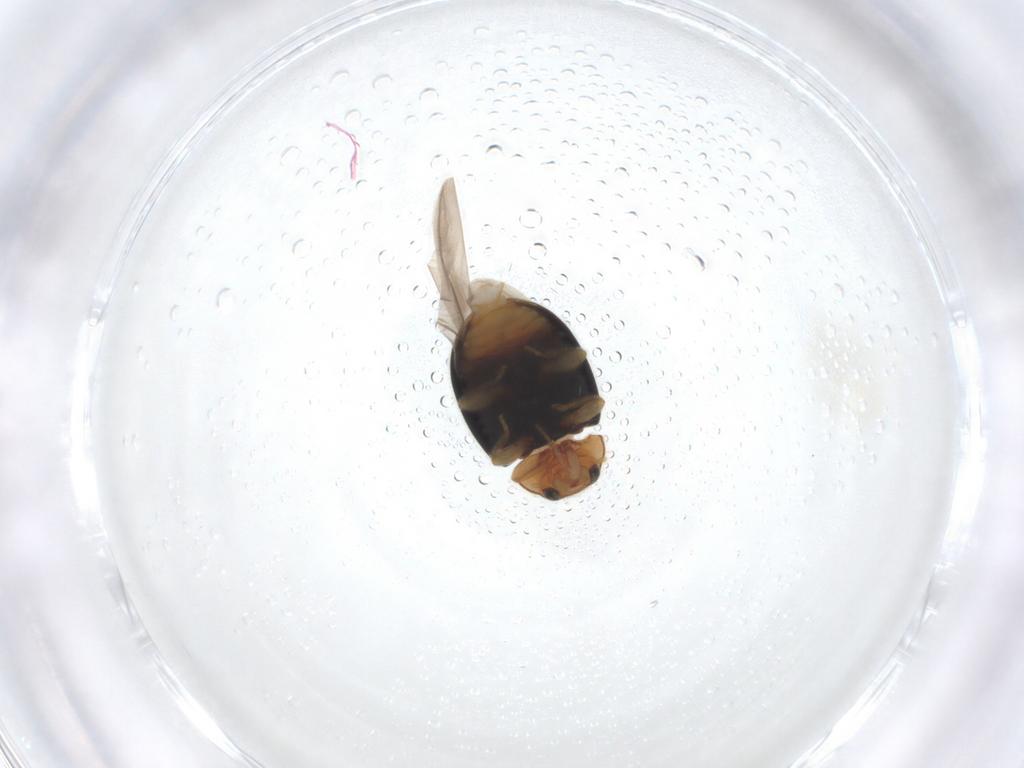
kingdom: Animalia
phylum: Arthropoda
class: Insecta
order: Coleoptera
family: Coccinellidae
